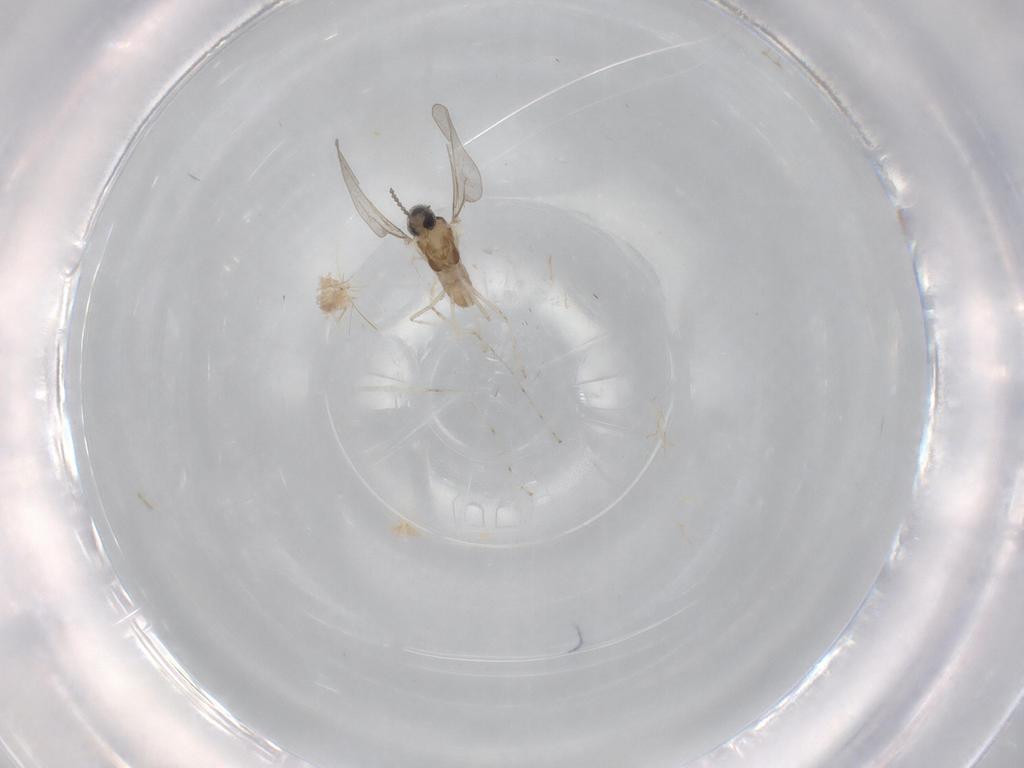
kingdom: Animalia
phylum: Arthropoda
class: Insecta
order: Diptera
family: Cecidomyiidae
